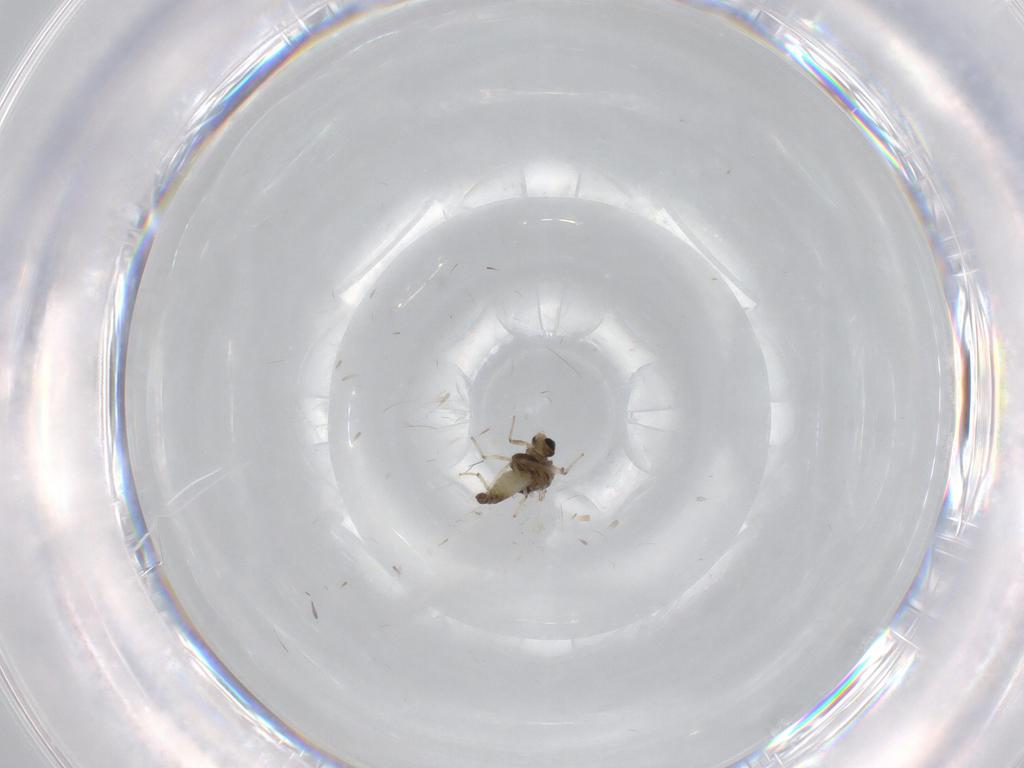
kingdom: Animalia
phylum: Arthropoda
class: Insecta
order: Diptera
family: Chironomidae
